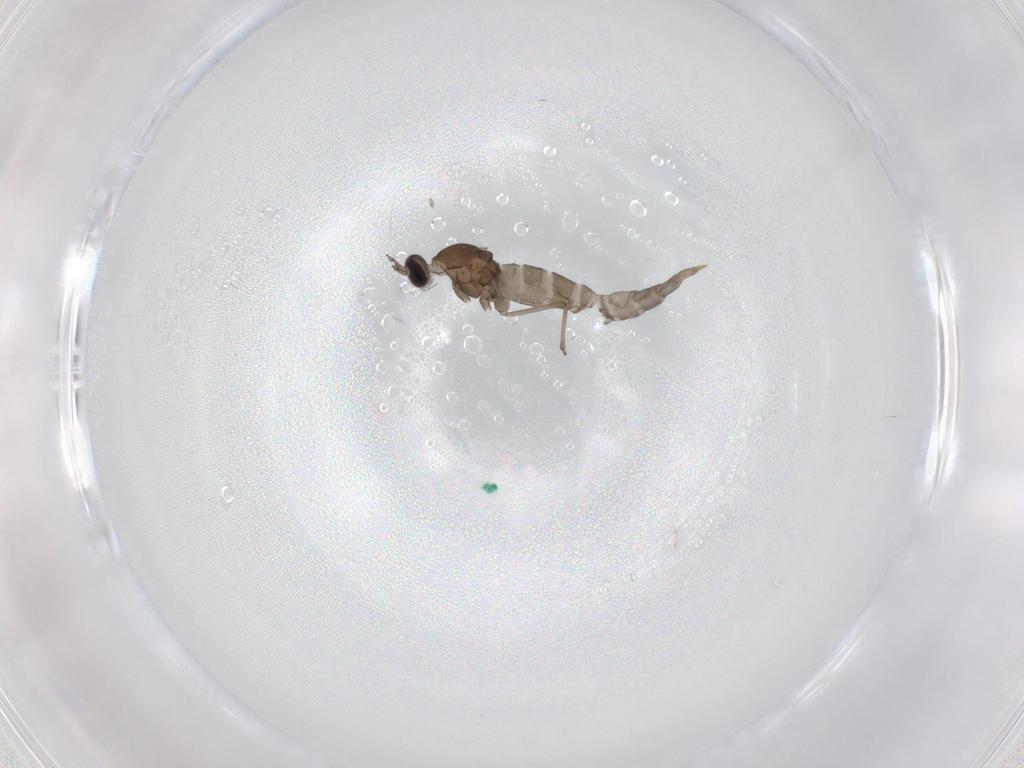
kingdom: Animalia
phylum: Arthropoda
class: Insecta
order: Diptera
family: Cecidomyiidae
